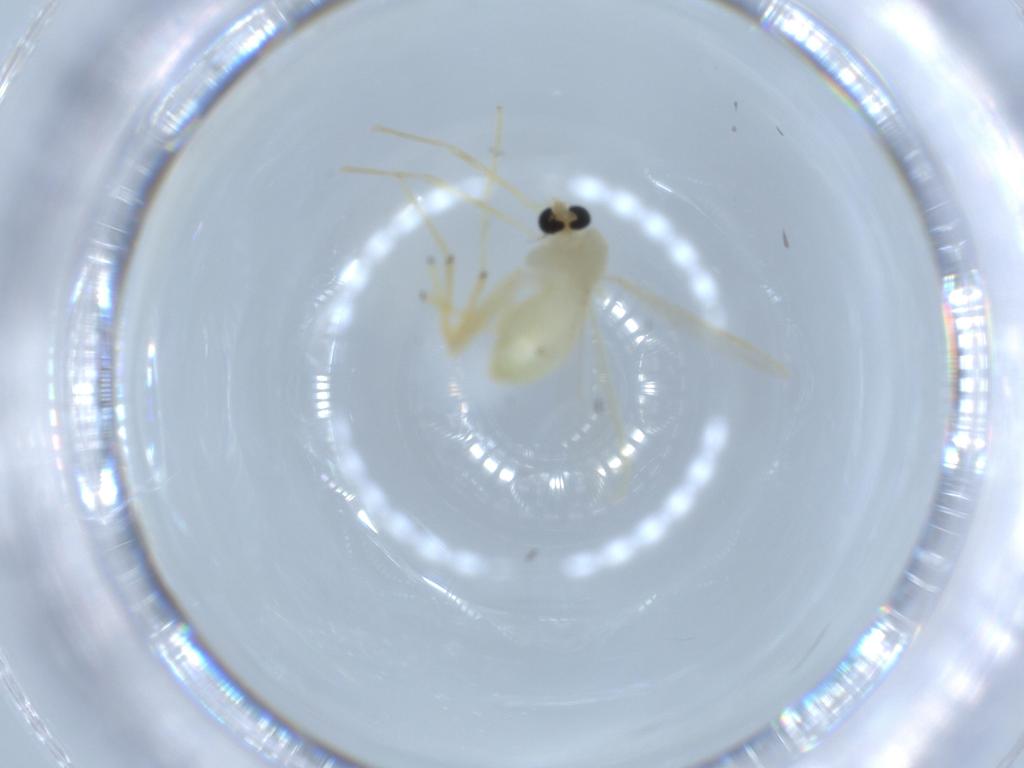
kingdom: Animalia
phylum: Arthropoda
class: Insecta
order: Diptera
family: Chironomidae
